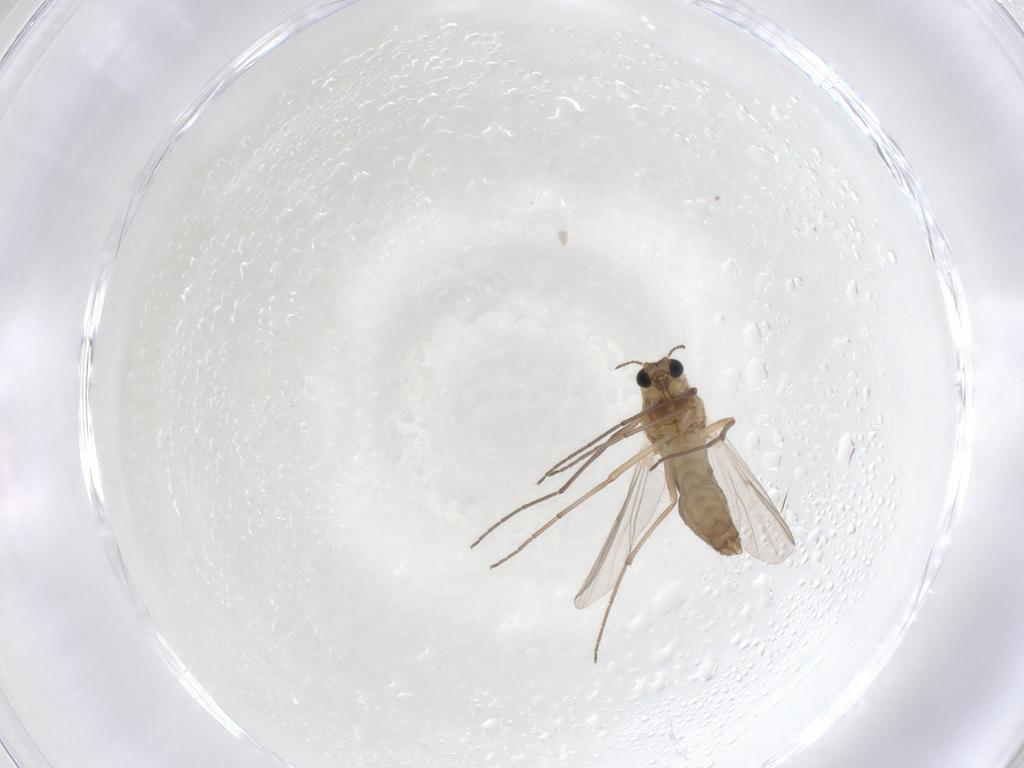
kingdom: Animalia
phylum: Arthropoda
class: Insecta
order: Diptera
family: Chironomidae
